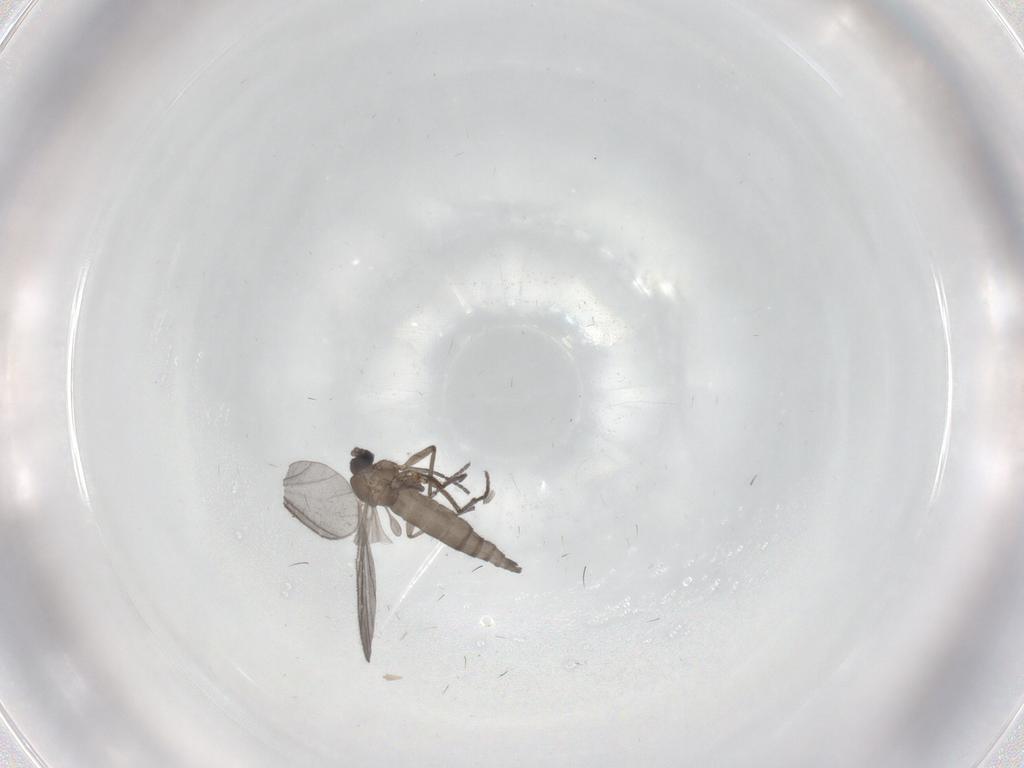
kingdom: Animalia
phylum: Arthropoda
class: Insecta
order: Diptera
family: Sciaridae
